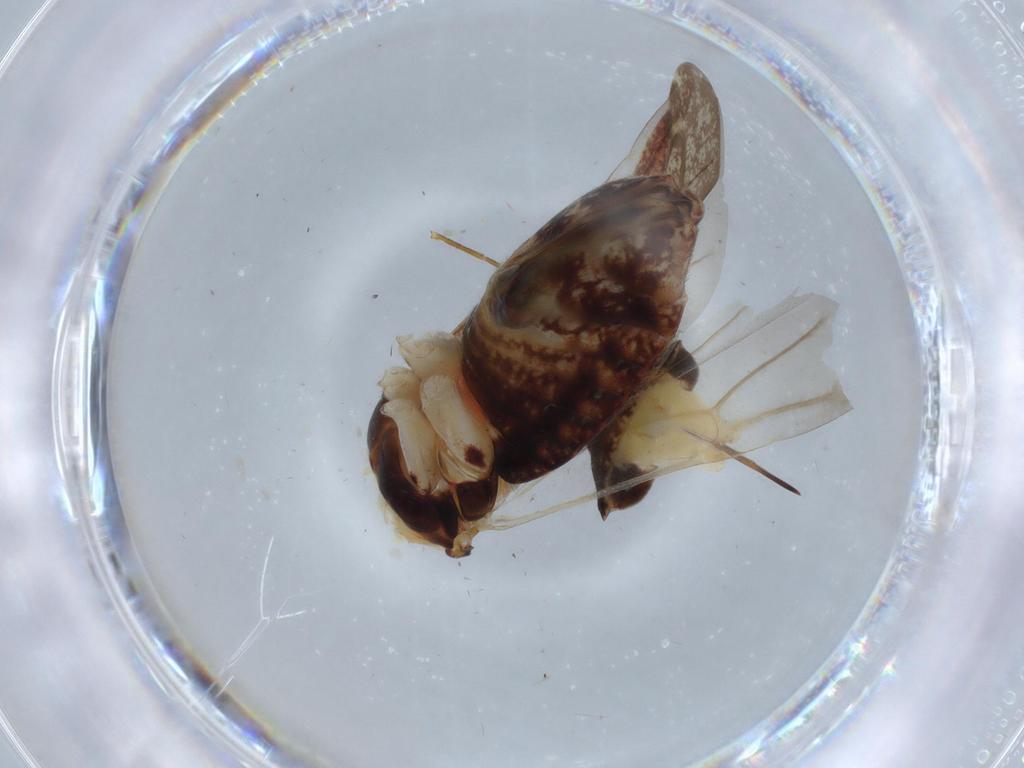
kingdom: Animalia
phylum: Arthropoda
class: Insecta
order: Hemiptera
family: Miridae
